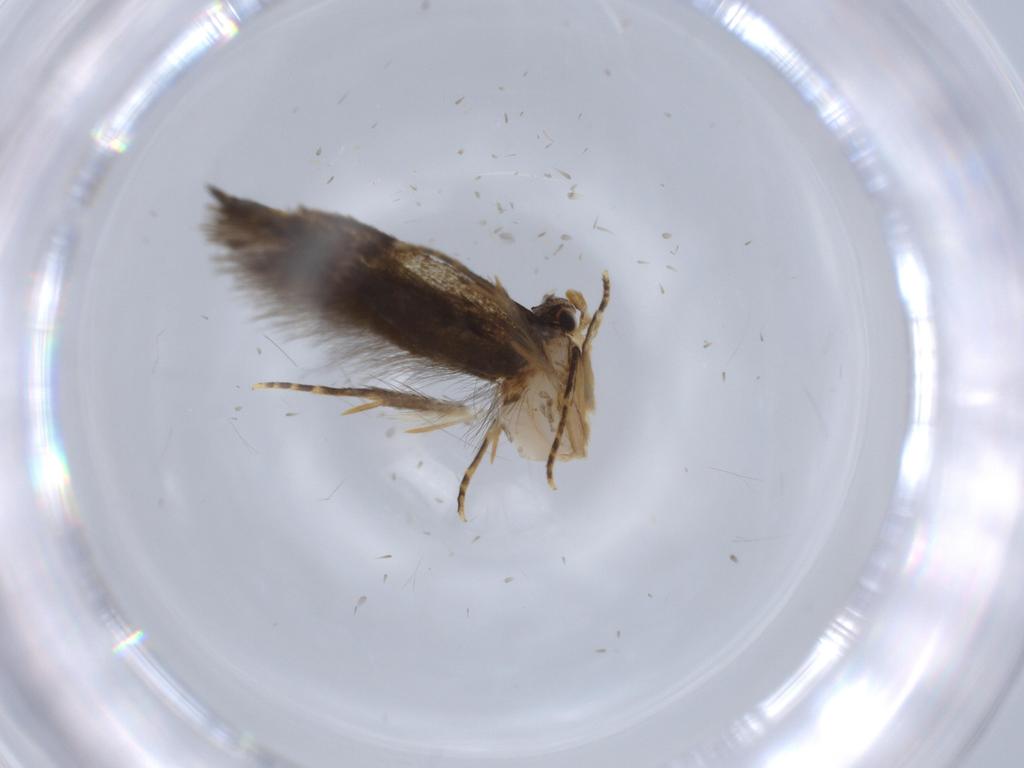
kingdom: Animalia
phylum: Arthropoda
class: Insecta
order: Lepidoptera
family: Tineidae
